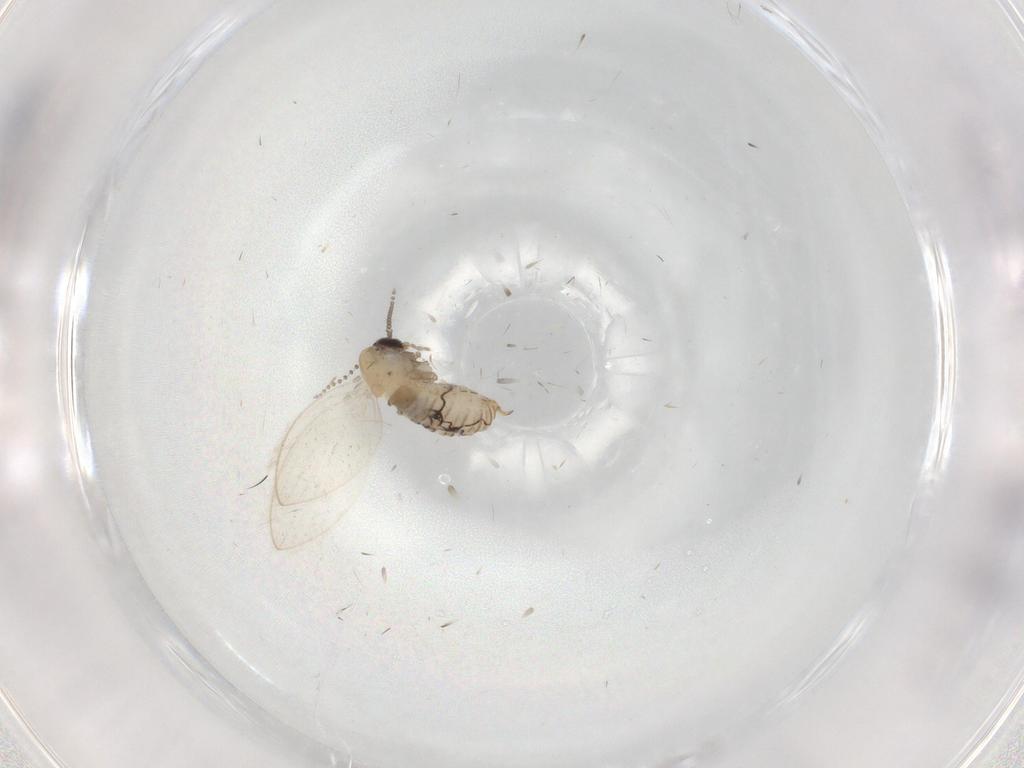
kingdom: Animalia
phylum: Arthropoda
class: Insecta
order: Diptera
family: Psychodidae
